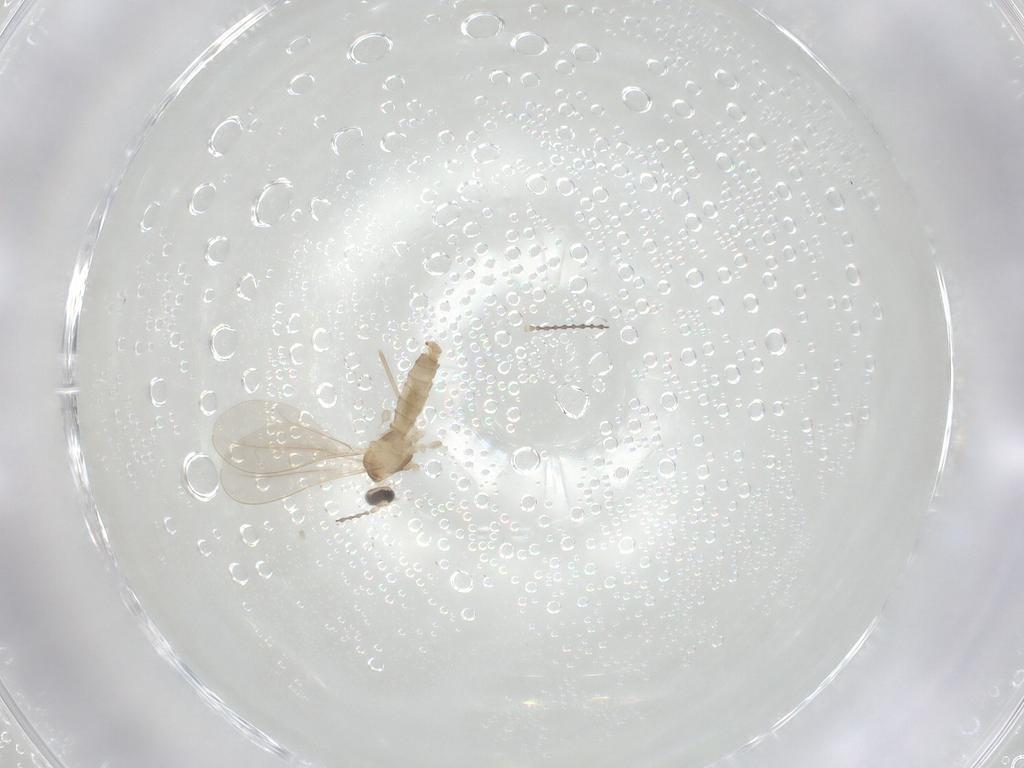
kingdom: Animalia
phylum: Arthropoda
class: Insecta
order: Diptera
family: Cecidomyiidae
